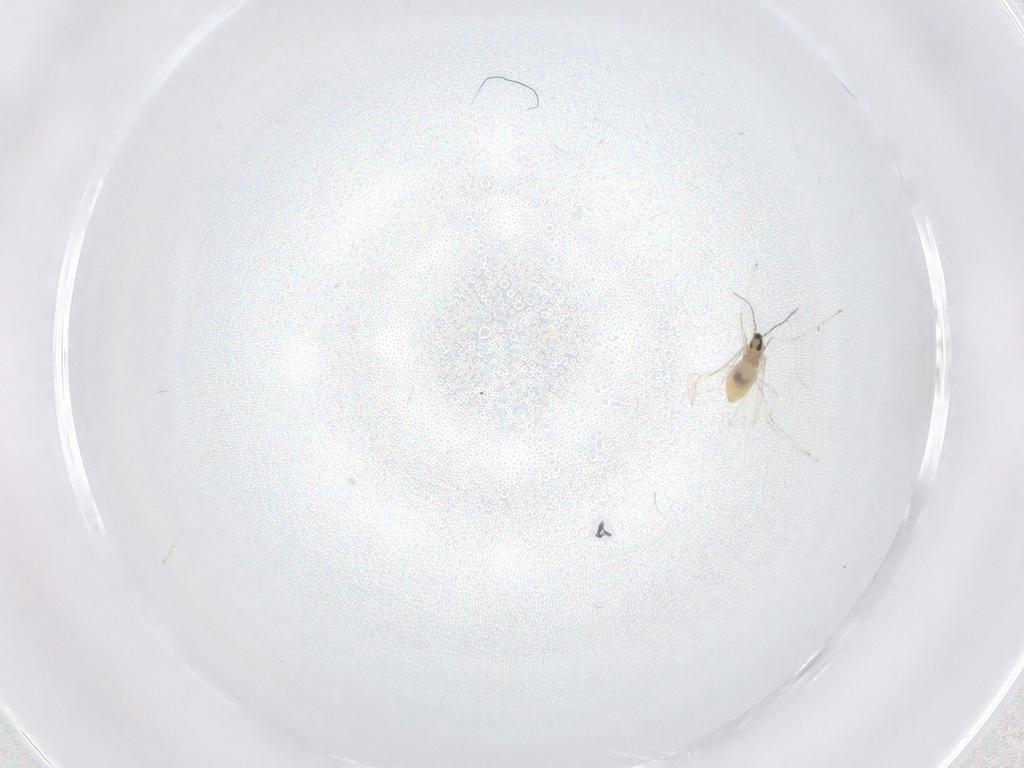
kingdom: Animalia
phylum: Arthropoda
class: Insecta
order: Diptera
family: Cecidomyiidae
